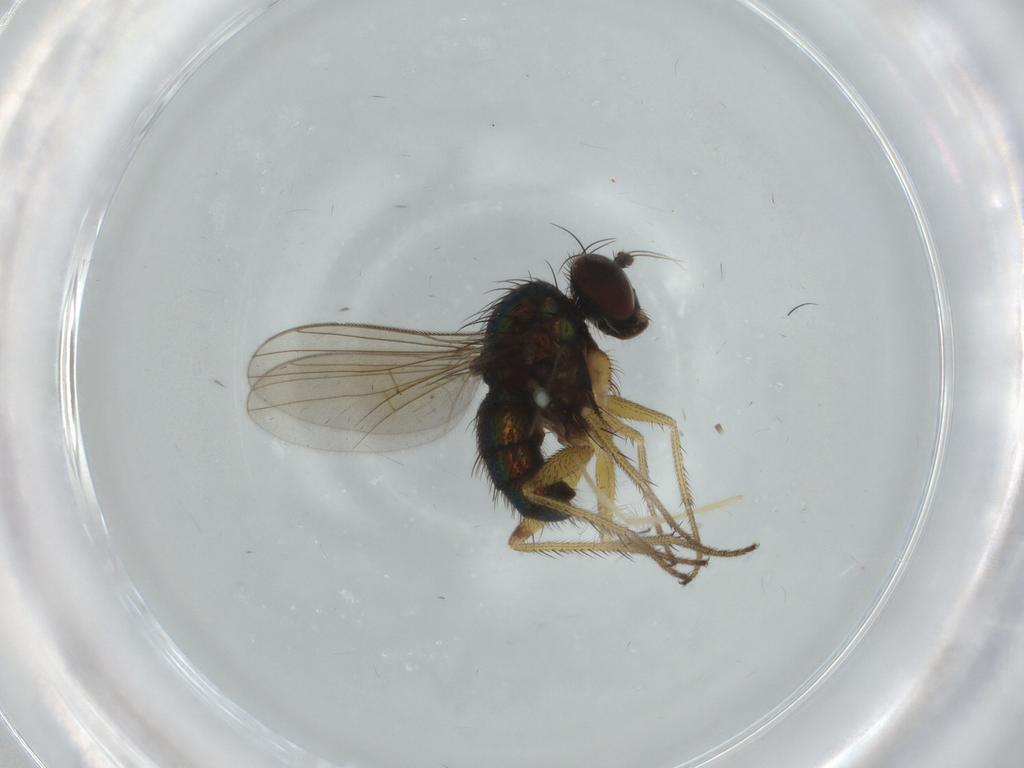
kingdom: Animalia
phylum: Arthropoda
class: Insecta
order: Diptera
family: Dolichopodidae
